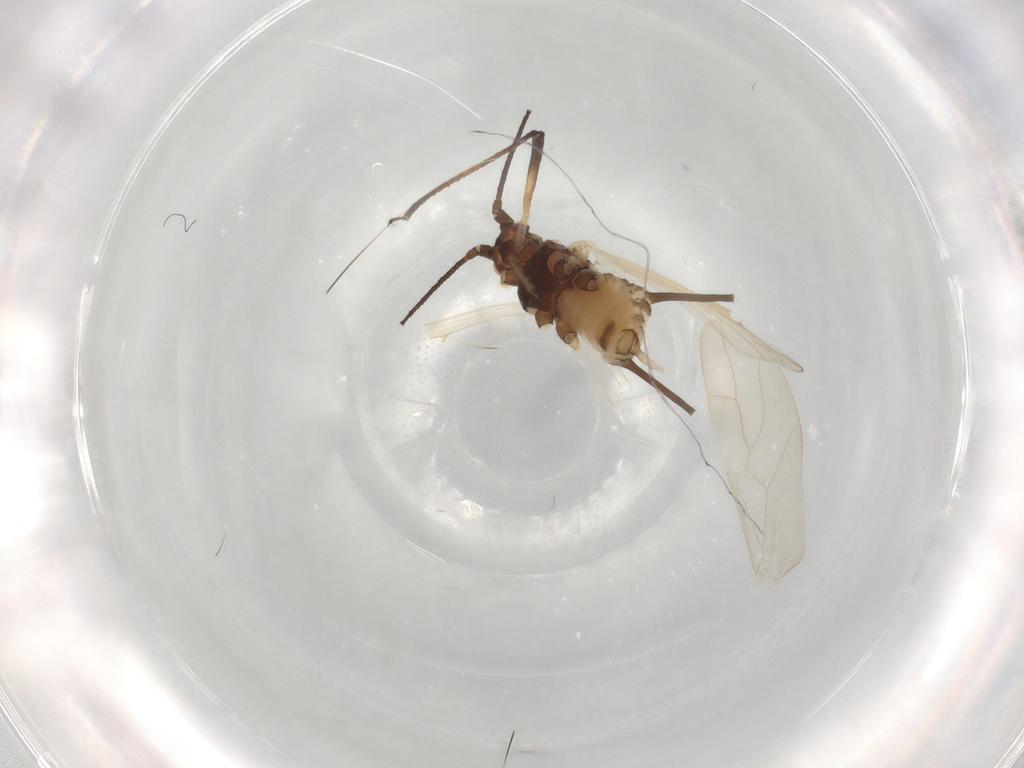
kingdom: Animalia
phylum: Arthropoda
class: Insecta
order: Hemiptera
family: Aphididae
